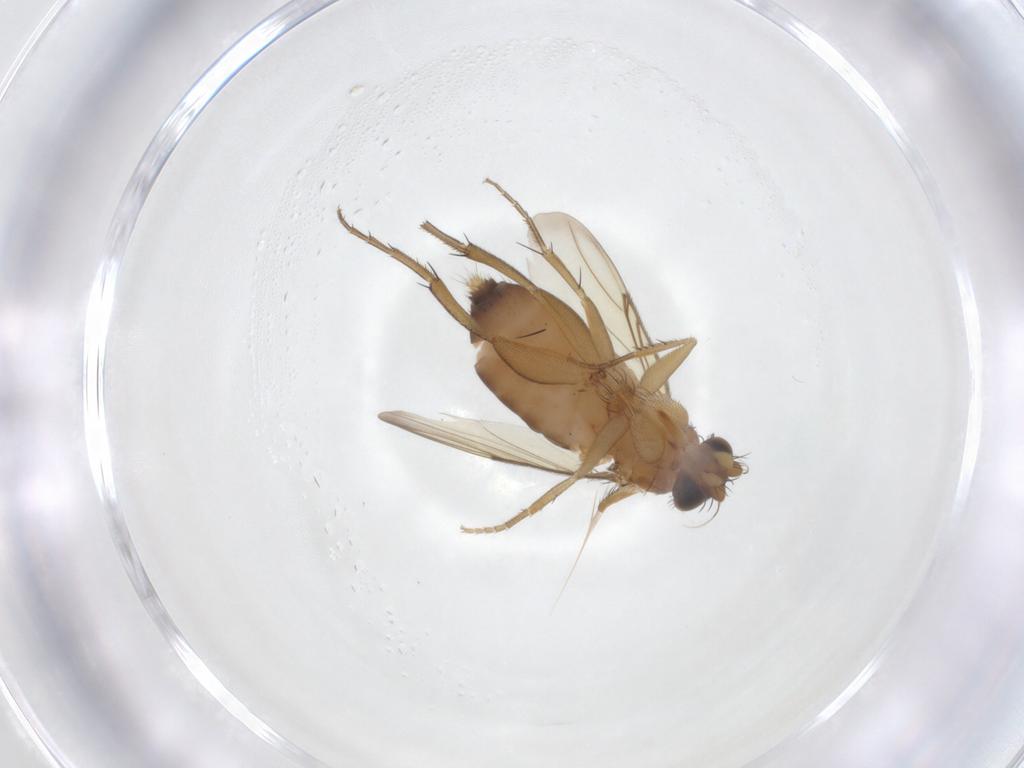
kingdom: Animalia
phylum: Arthropoda
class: Insecta
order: Diptera
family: Phoridae
